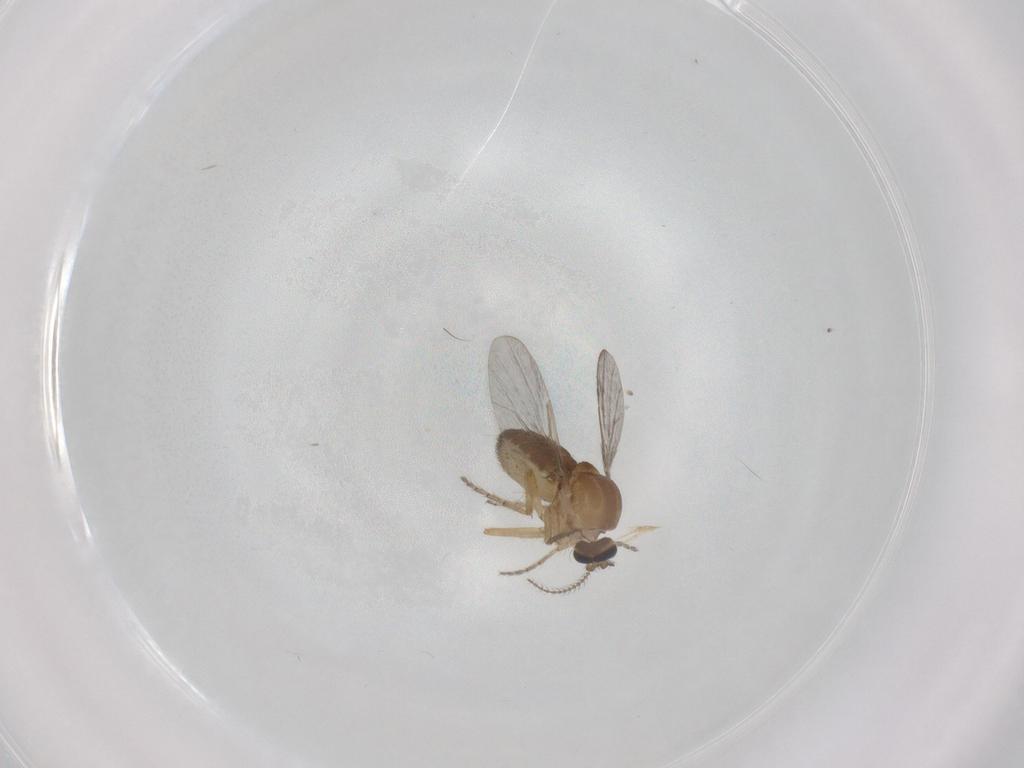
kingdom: Animalia
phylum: Arthropoda
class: Insecta
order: Diptera
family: Ceratopogonidae
